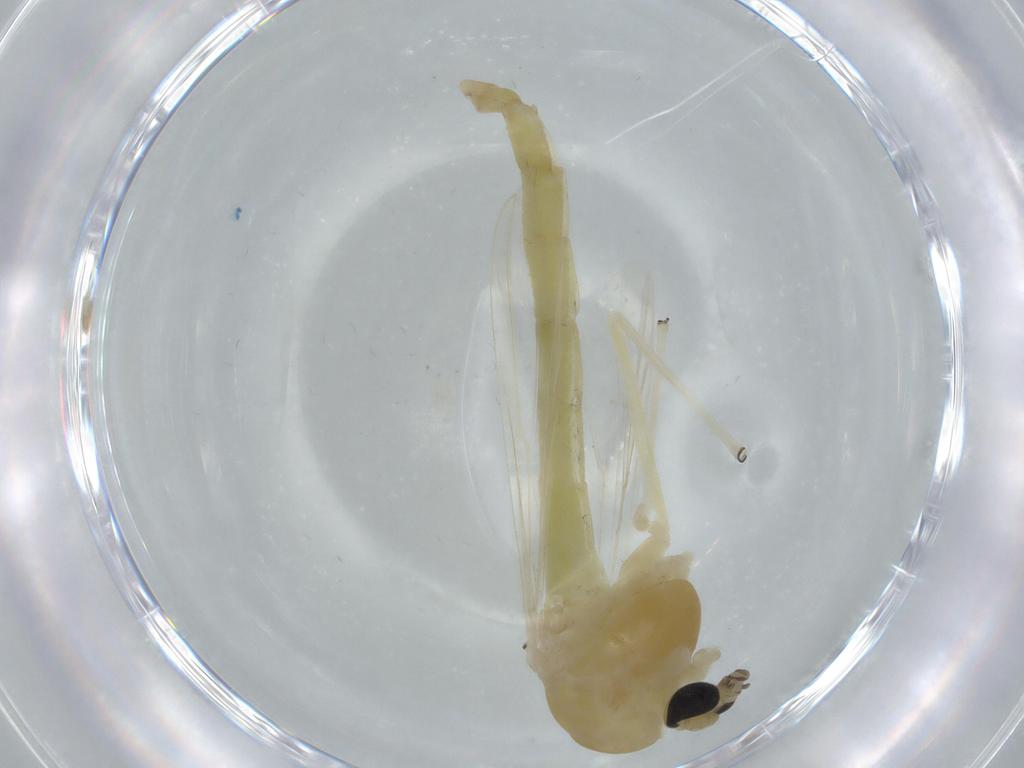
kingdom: Animalia
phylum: Arthropoda
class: Insecta
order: Diptera
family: Chironomidae
